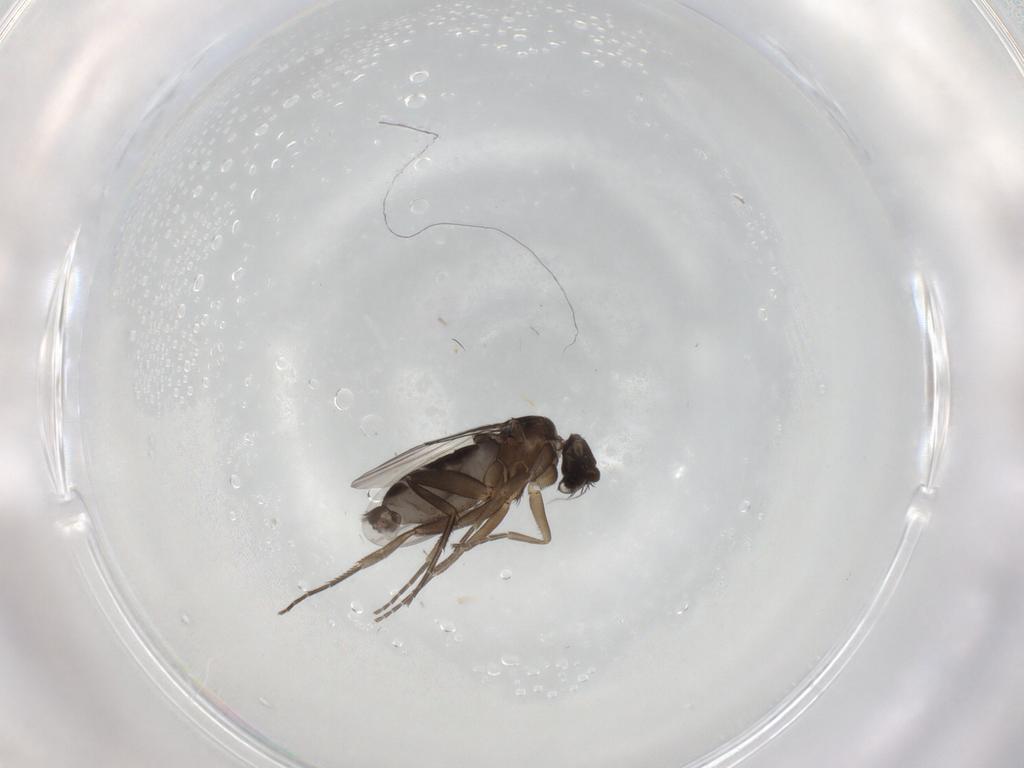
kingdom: Animalia
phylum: Arthropoda
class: Insecta
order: Diptera
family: Phoridae
